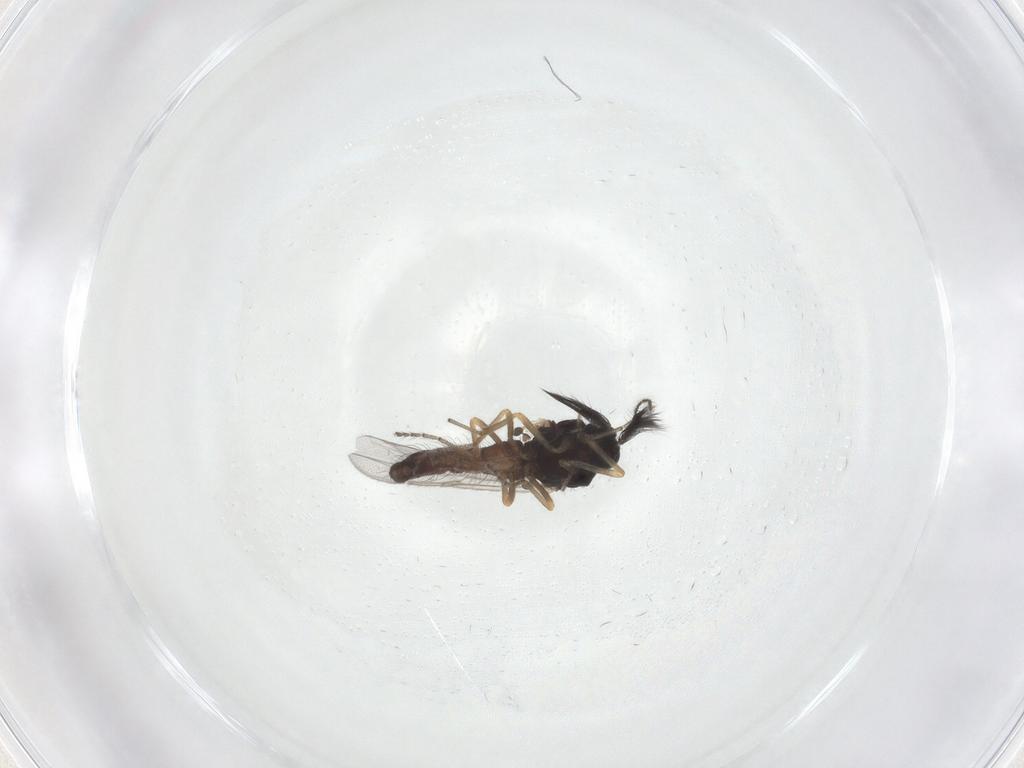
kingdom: Animalia
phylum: Arthropoda
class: Insecta
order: Diptera
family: Ceratopogonidae
